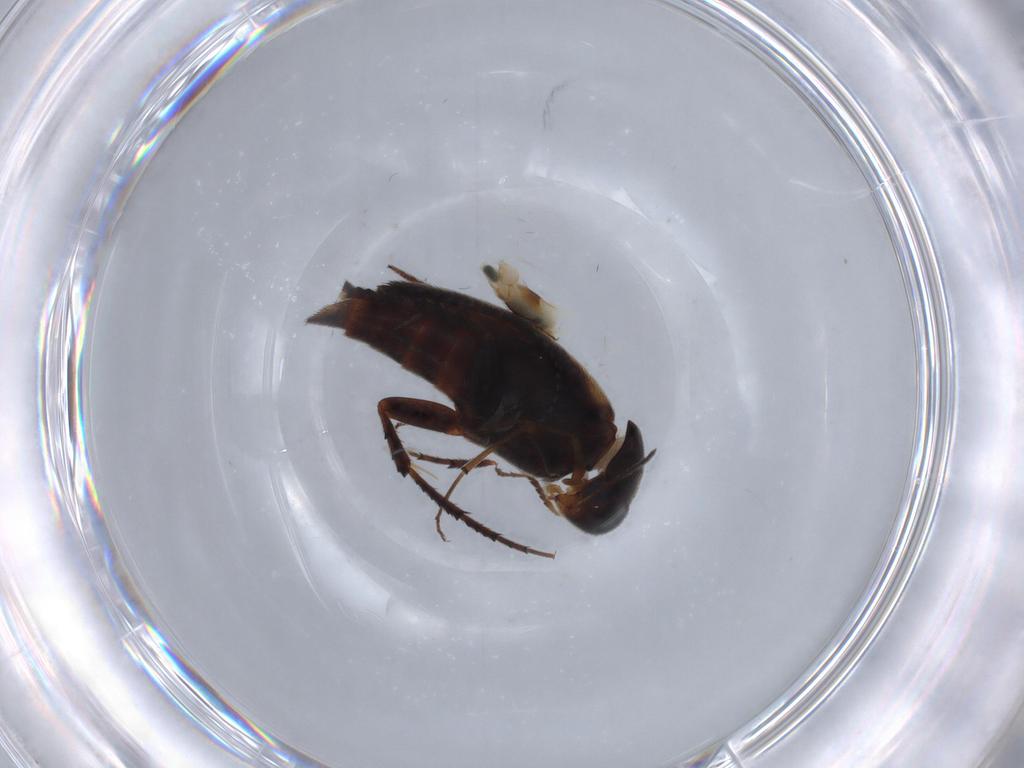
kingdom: Animalia
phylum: Arthropoda
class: Insecta
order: Coleoptera
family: Mordellidae
